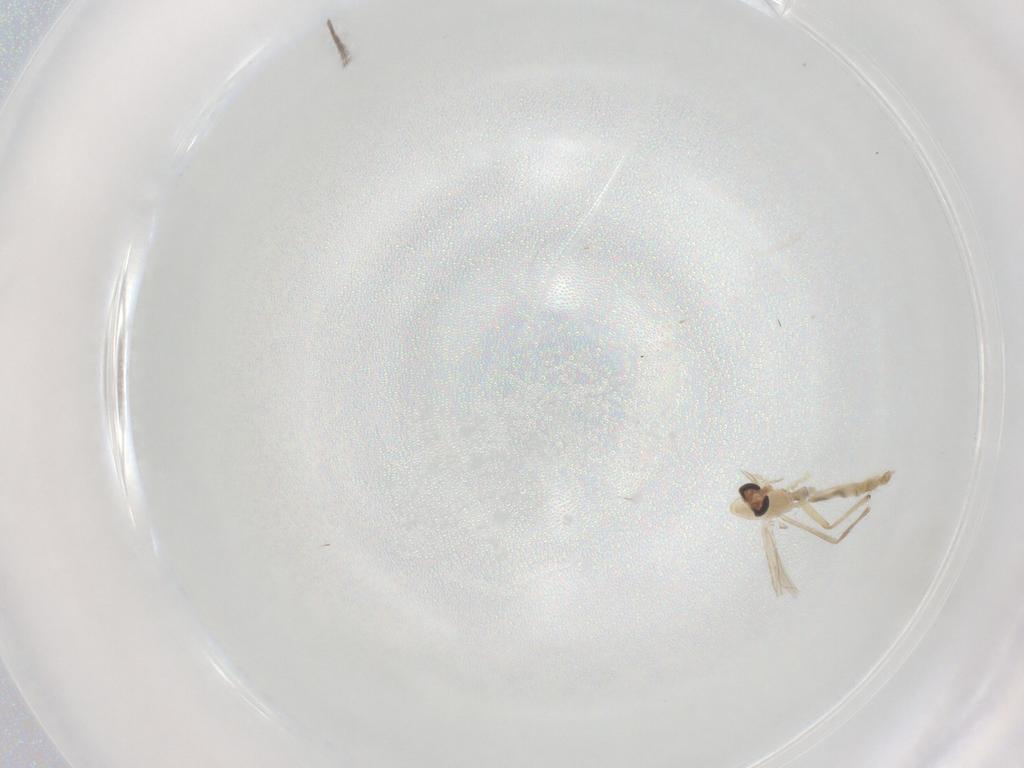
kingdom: Animalia
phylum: Arthropoda
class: Insecta
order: Diptera
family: Chironomidae
